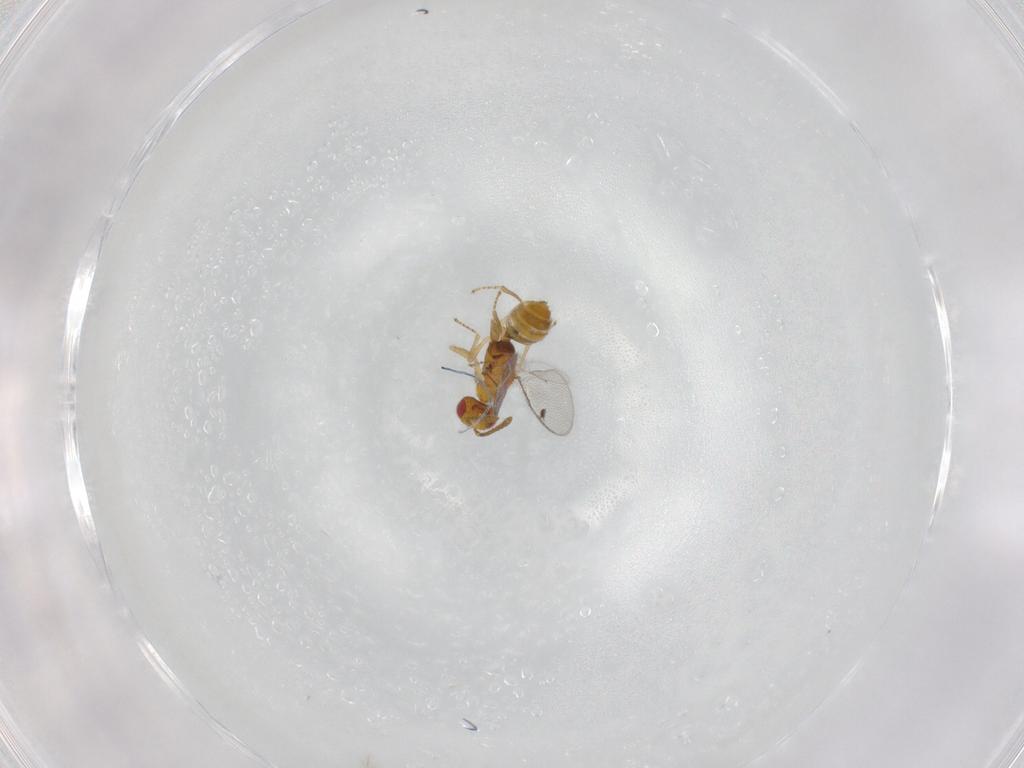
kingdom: Animalia
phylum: Arthropoda
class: Insecta
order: Hymenoptera
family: Megastigmidae
